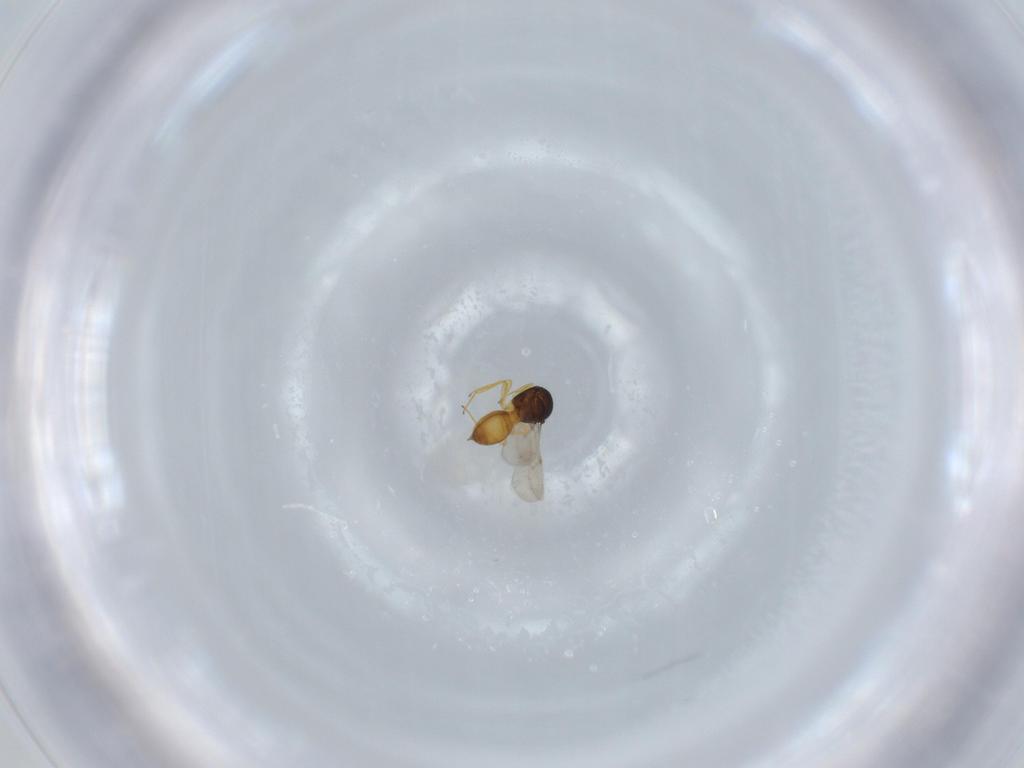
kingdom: Animalia
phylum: Arthropoda
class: Insecta
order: Hymenoptera
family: Scelionidae
